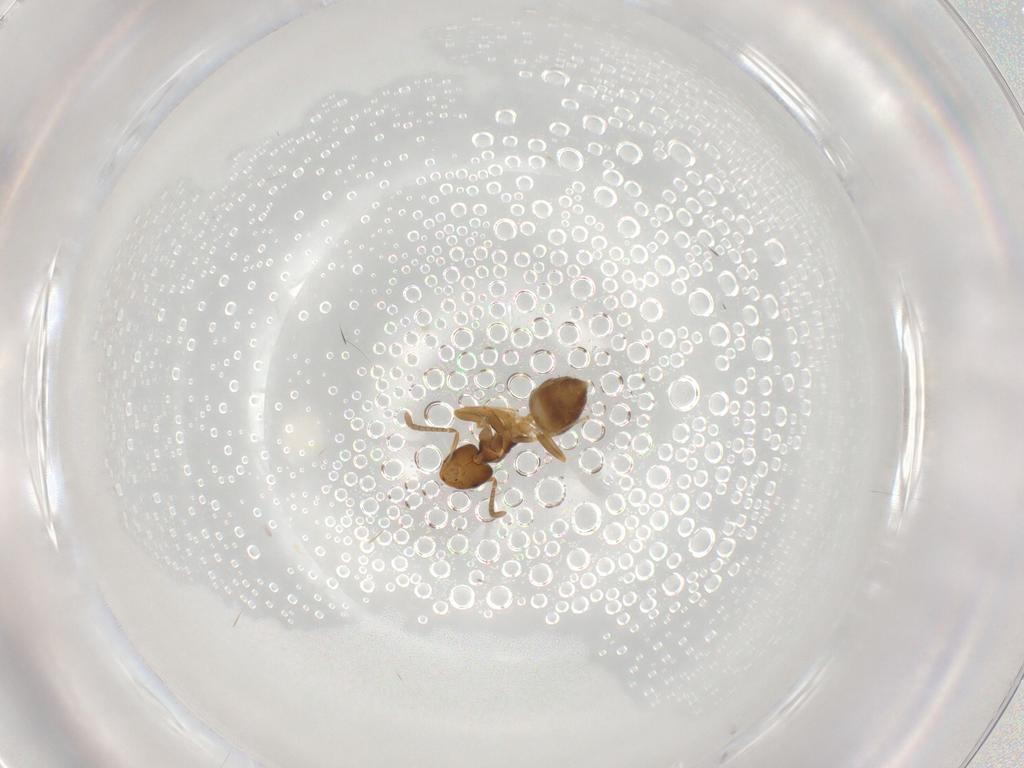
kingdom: Animalia
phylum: Arthropoda
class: Insecta
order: Hymenoptera
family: Formicidae
